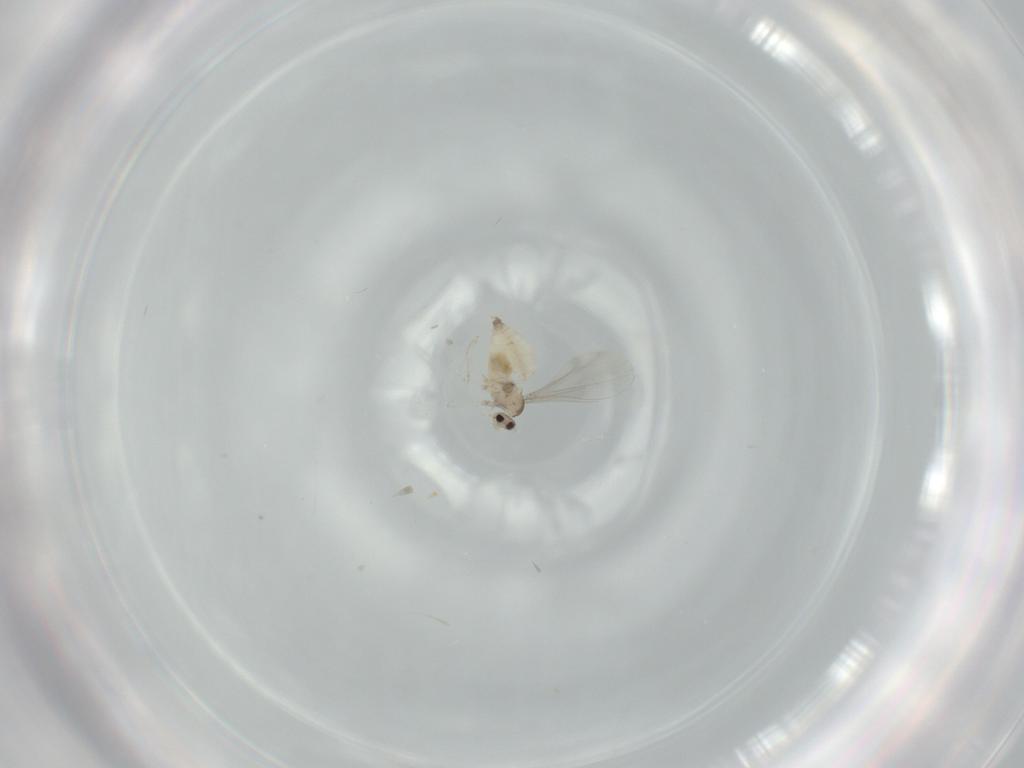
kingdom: Animalia
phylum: Arthropoda
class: Insecta
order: Diptera
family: Cecidomyiidae
